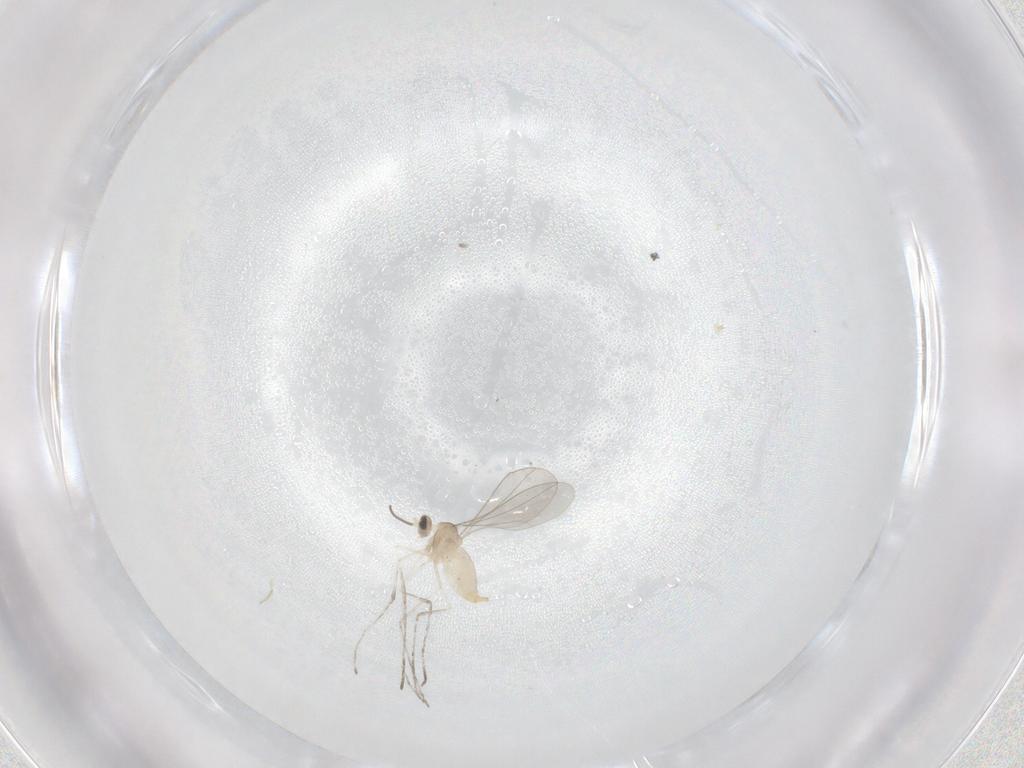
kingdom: Animalia
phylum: Arthropoda
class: Insecta
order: Diptera
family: Cecidomyiidae
